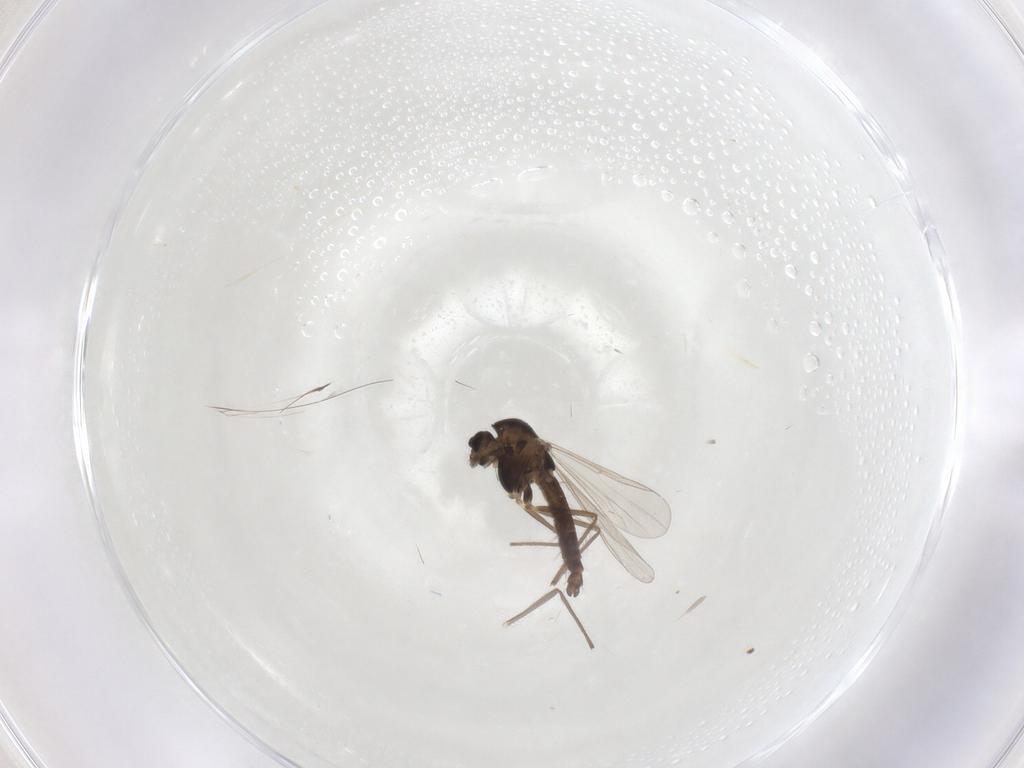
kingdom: Animalia
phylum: Arthropoda
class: Insecta
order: Diptera
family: Chironomidae
